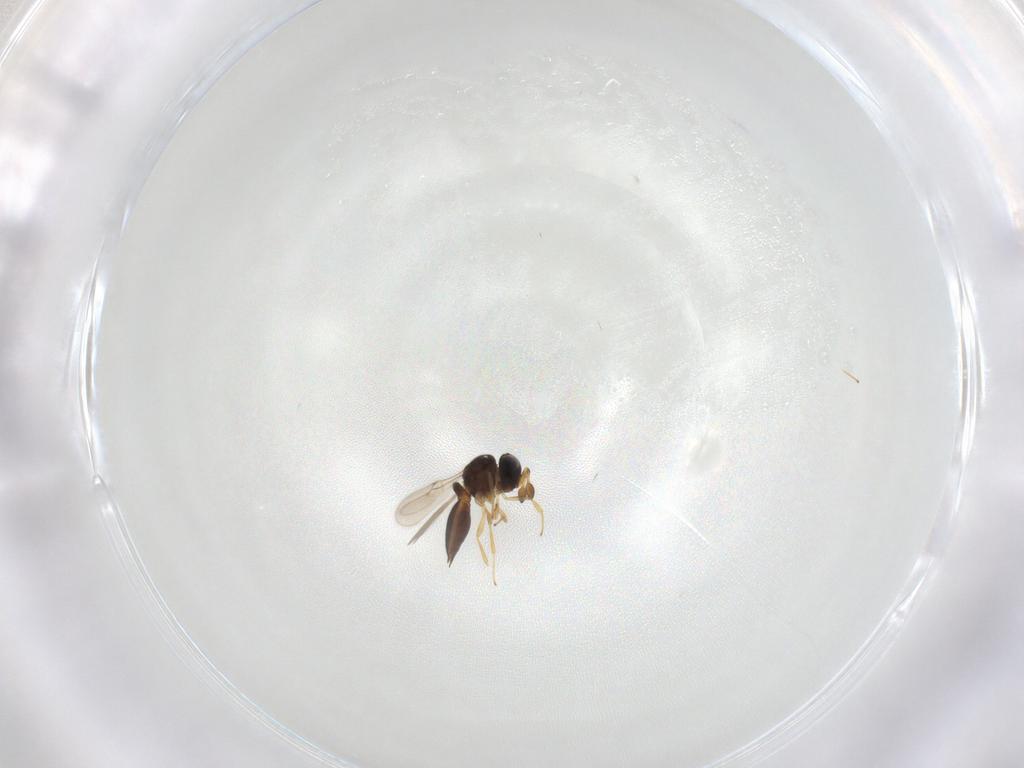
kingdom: Animalia
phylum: Arthropoda
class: Insecta
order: Hymenoptera
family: Scelionidae
